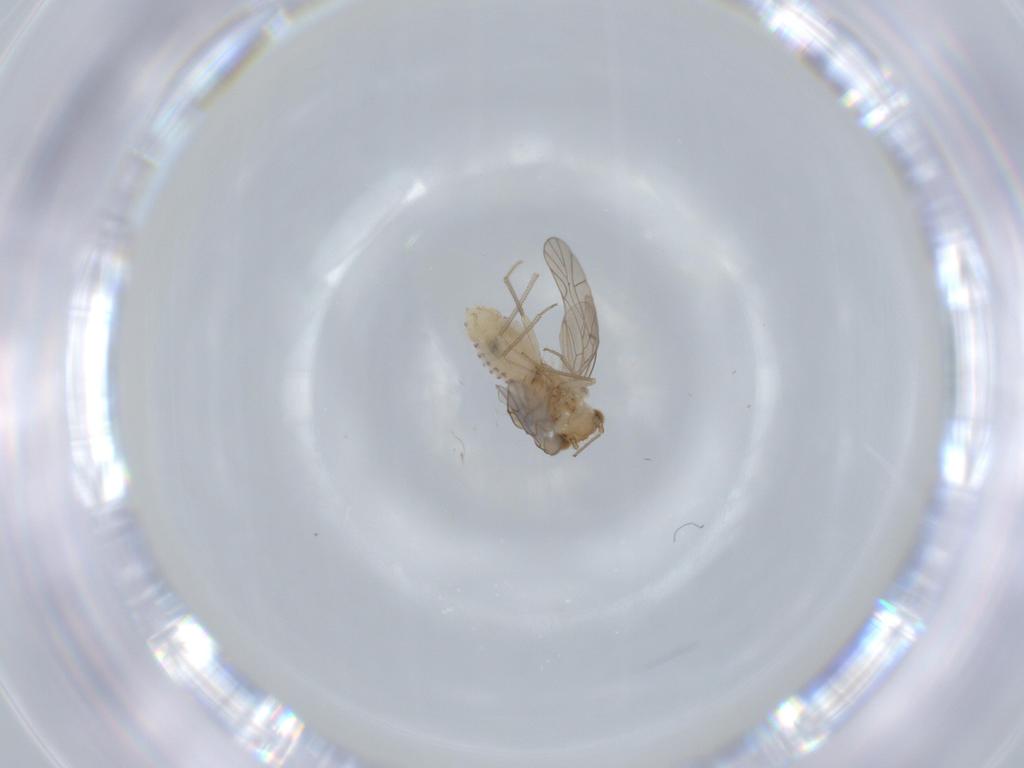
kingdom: Animalia
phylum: Arthropoda
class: Insecta
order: Psocodea
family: Lachesillidae
